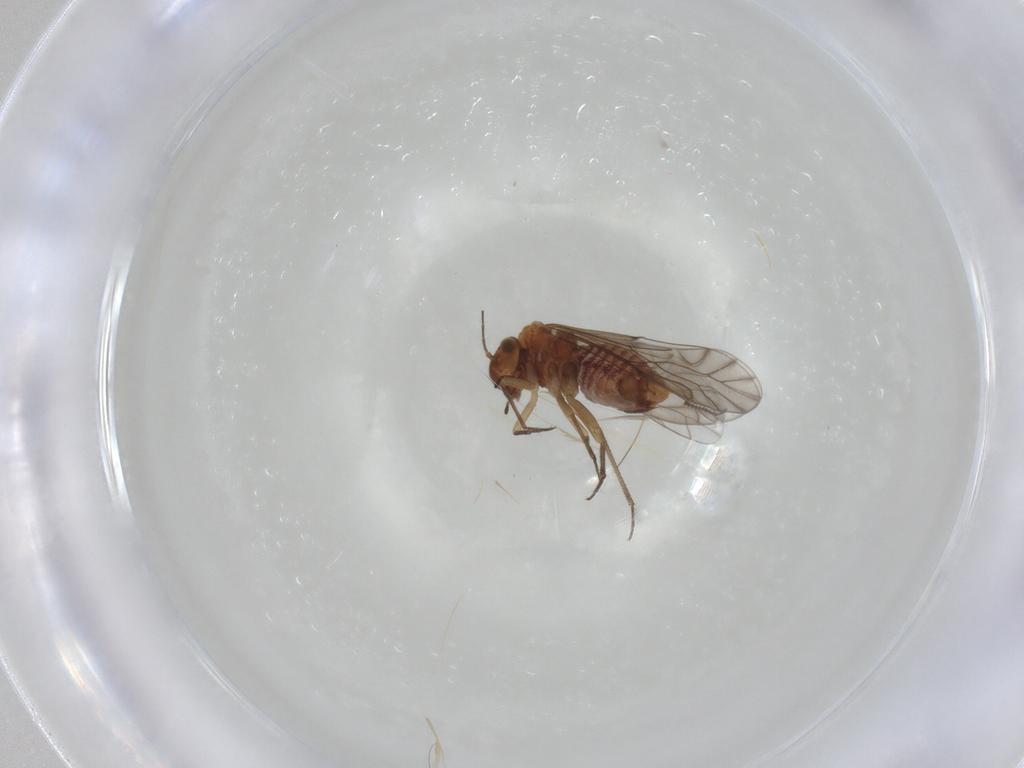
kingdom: Animalia
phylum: Arthropoda
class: Insecta
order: Psocodea
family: Lachesillidae
